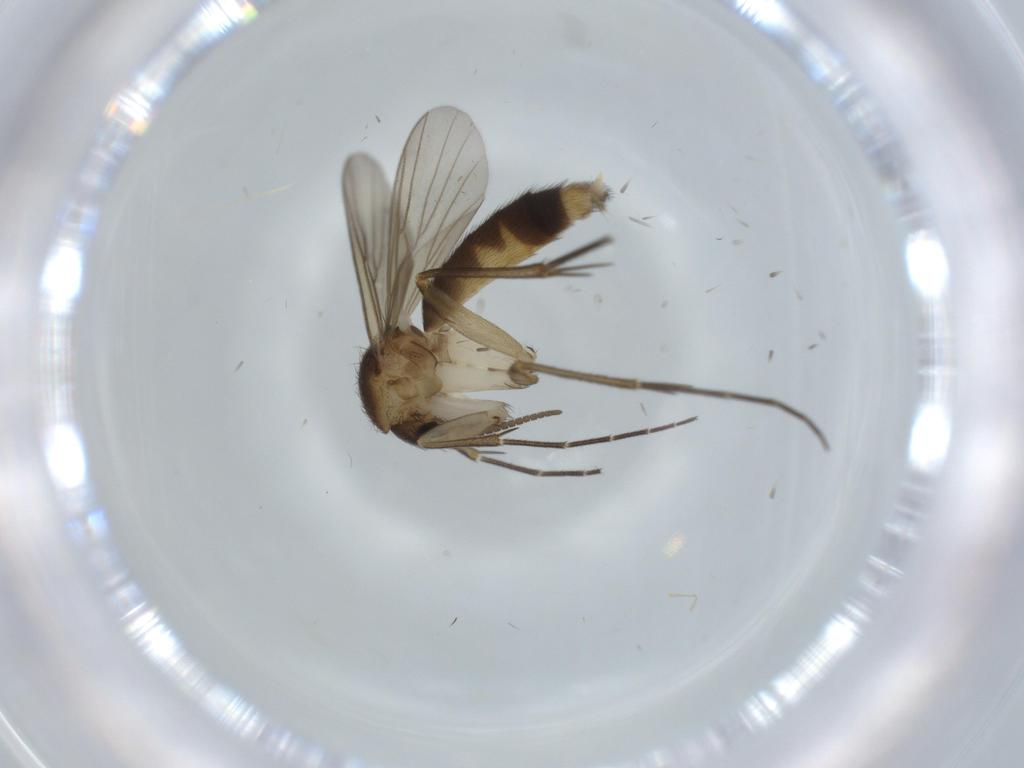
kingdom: Animalia
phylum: Arthropoda
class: Insecta
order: Diptera
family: Mycetophilidae
